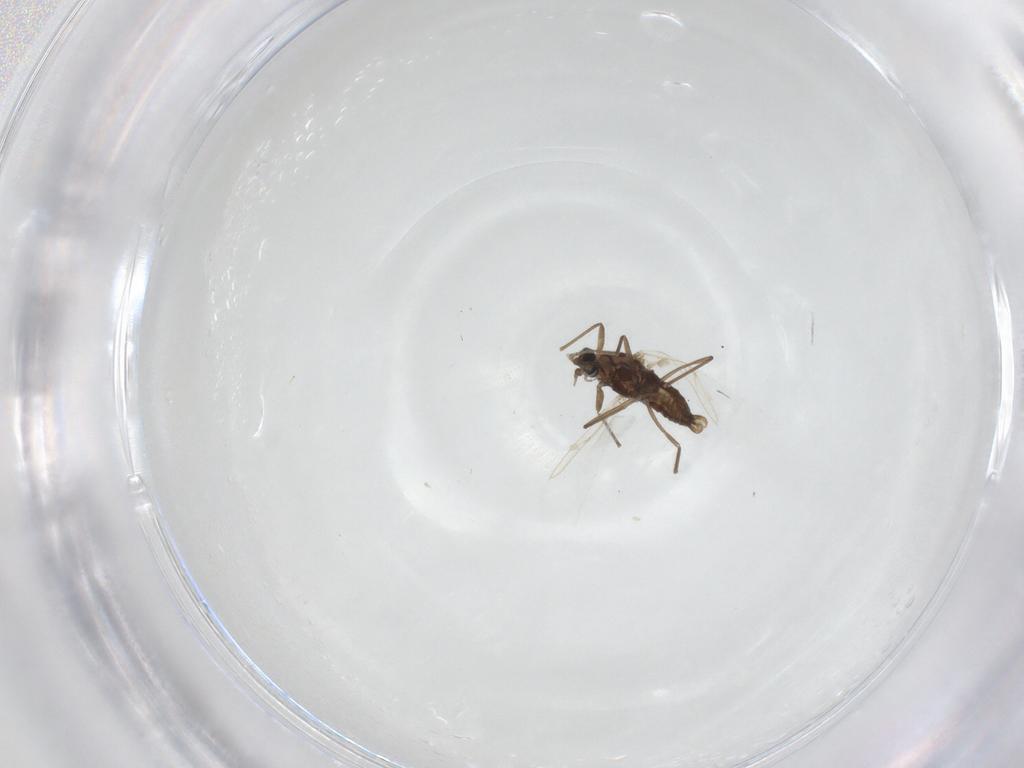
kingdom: Animalia
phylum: Arthropoda
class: Insecta
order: Diptera
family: Cecidomyiidae
